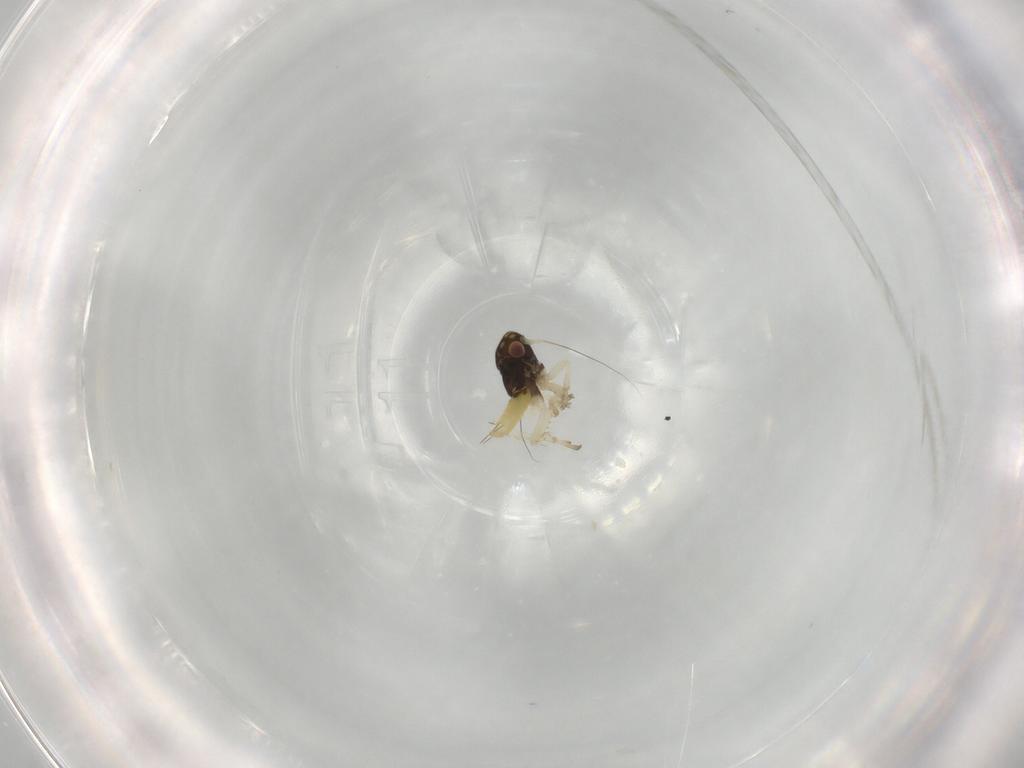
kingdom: Animalia
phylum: Arthropoda
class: Insecta
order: Hemiptera
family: Cicadellidae
